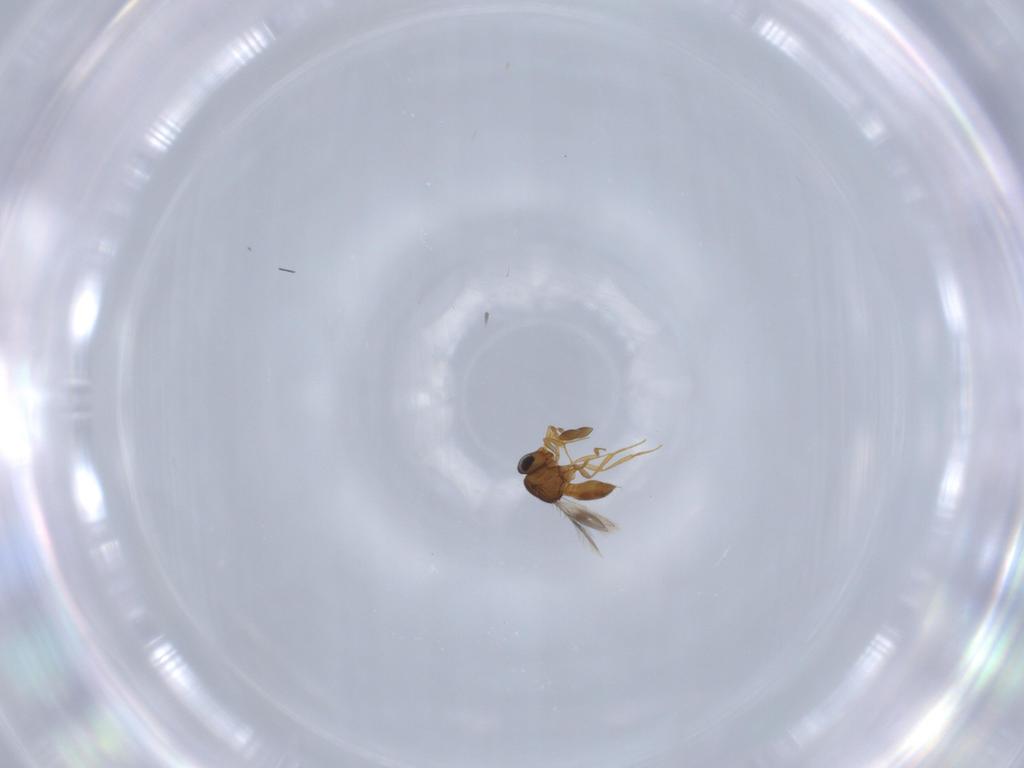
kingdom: Animalia
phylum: Arthropoda
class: Insecta
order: Hymenoptera
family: Scelionidae
